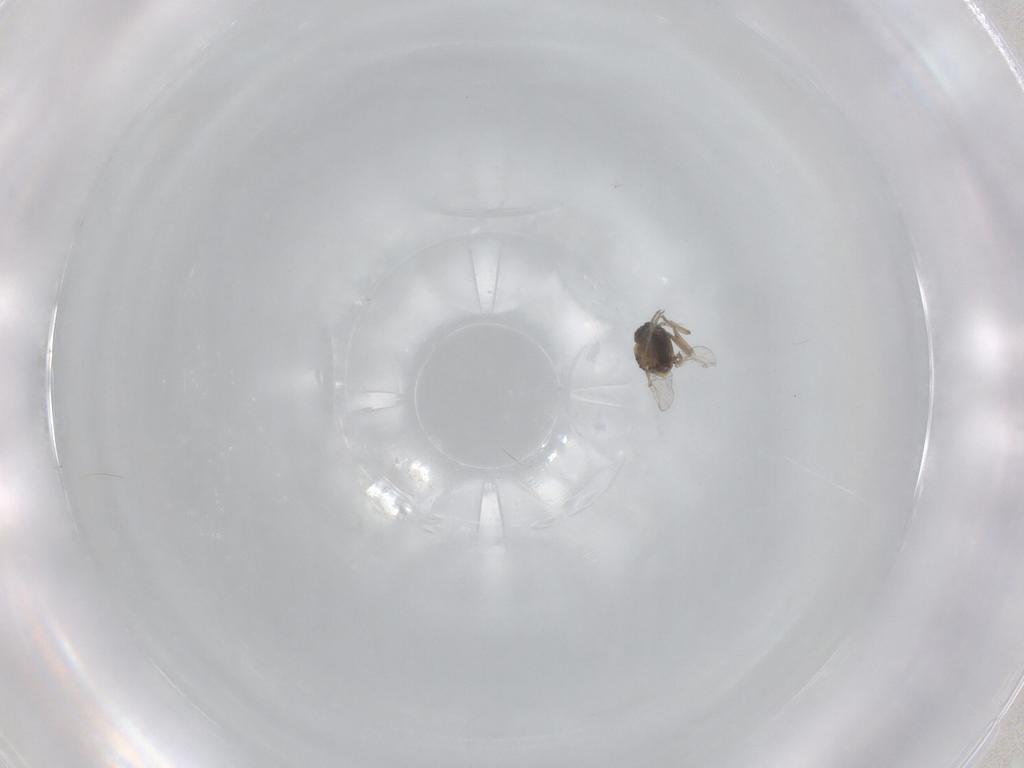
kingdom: Animalia
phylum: Arthropoda
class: Insecta
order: Diptera
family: Ceratopogonidae
